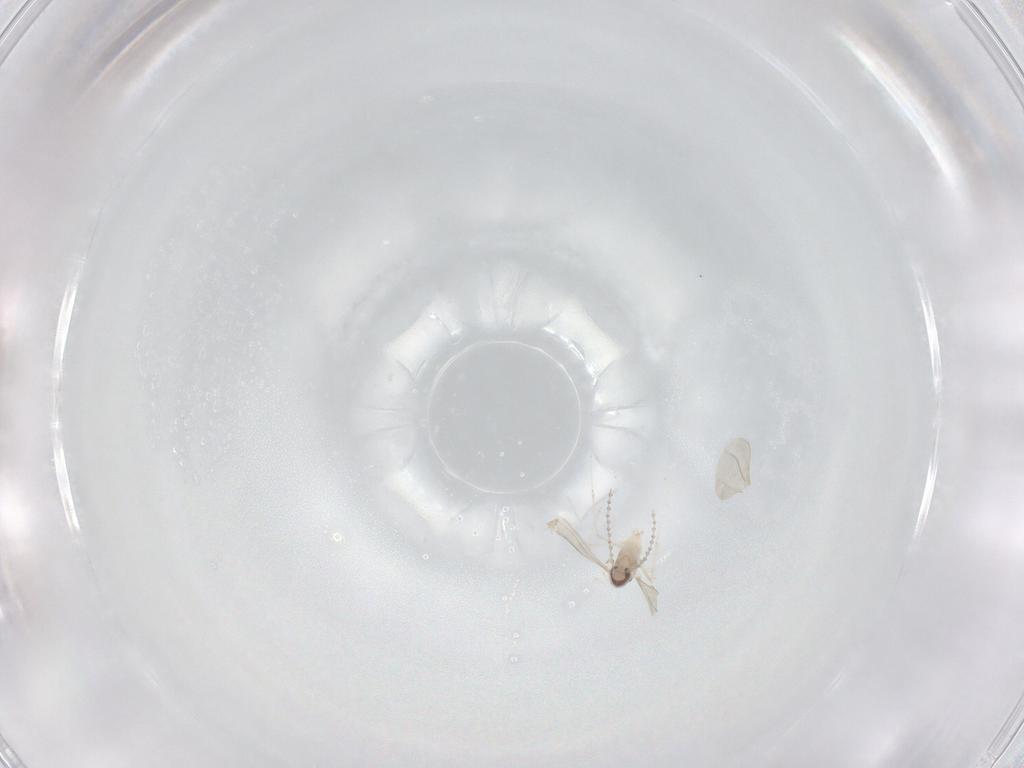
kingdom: Animalia
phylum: Arthropoda
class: Insecta
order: Diptera
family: Cecidomyiidae
